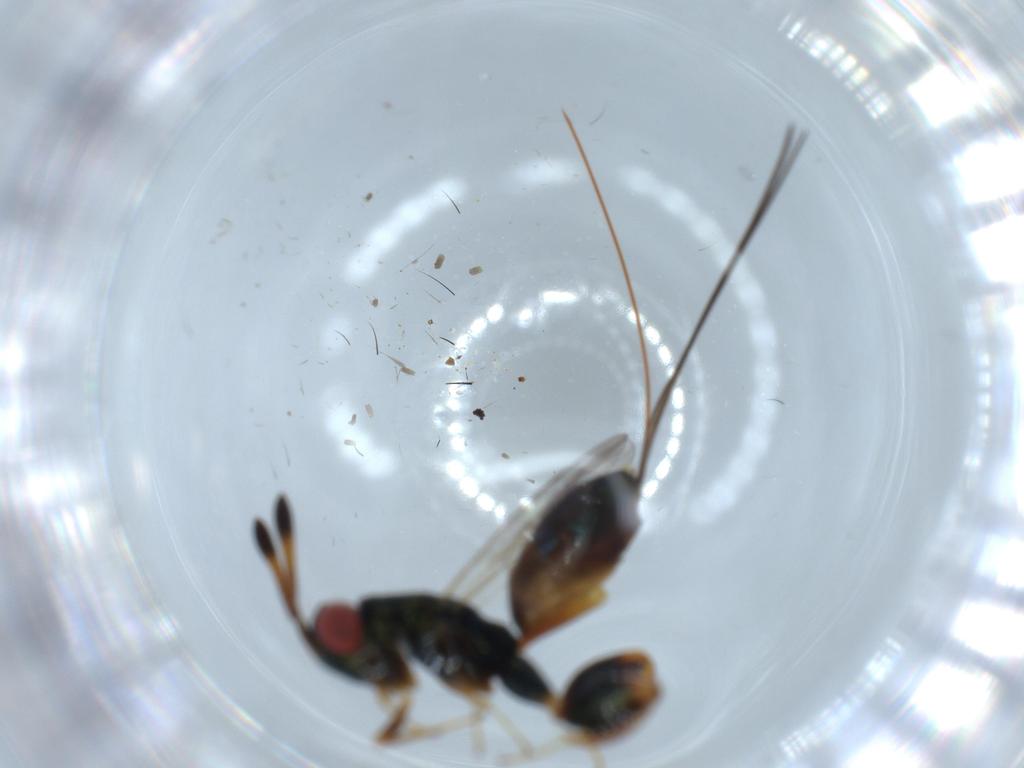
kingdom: Animalia
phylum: Arthropoda
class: Insecta
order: Hymenoptera
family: Torymidae
